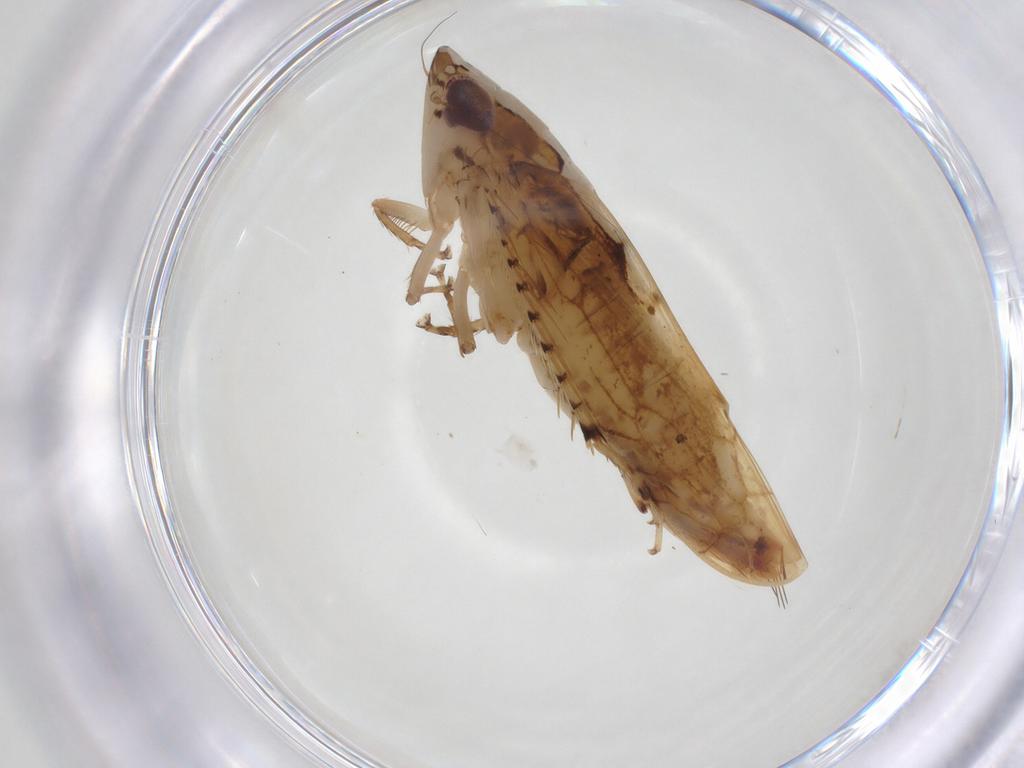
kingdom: Animalia
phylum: Arthropoda
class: Insecta
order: Hemiptera
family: Cicadellidae
